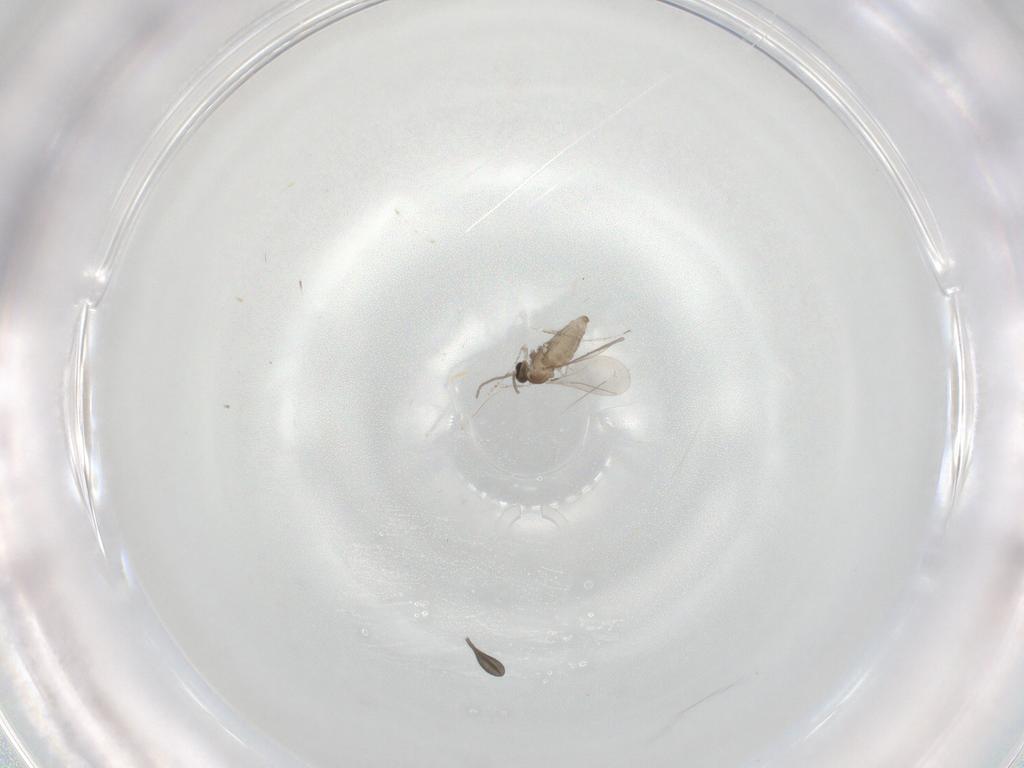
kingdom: Animalia
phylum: Arthropoda
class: Insecta
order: Diptera
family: Cecidomyiidae
